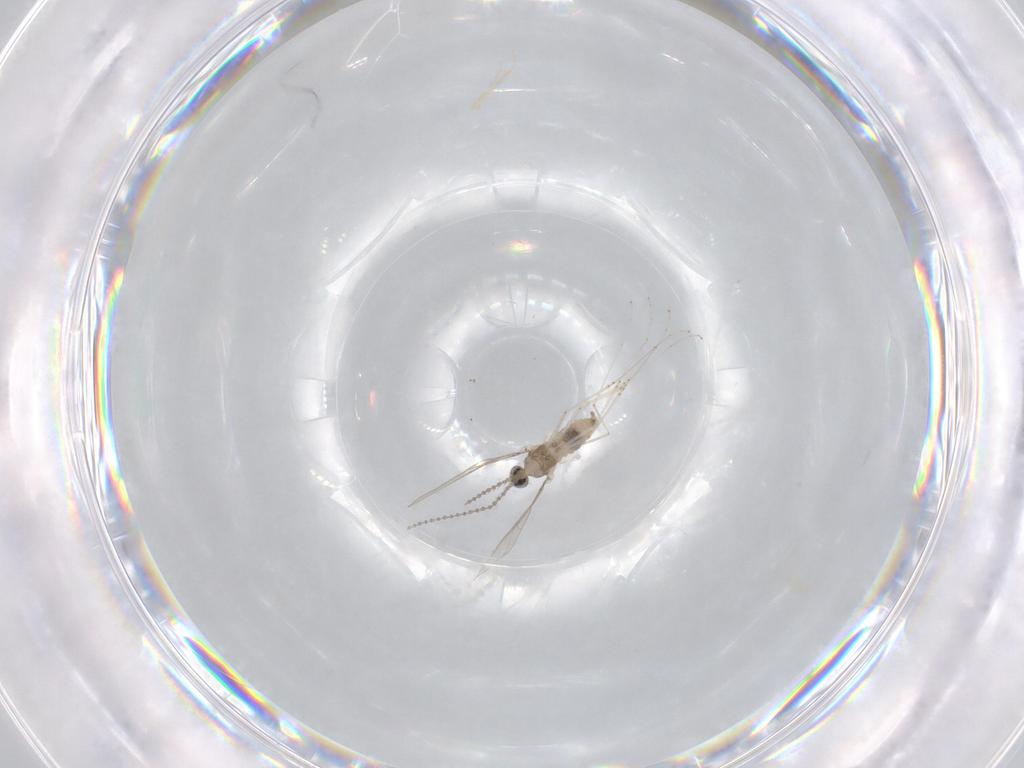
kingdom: Animalia
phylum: Arthropoda
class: Insecta
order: Diptera
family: Cecidomyiidae
